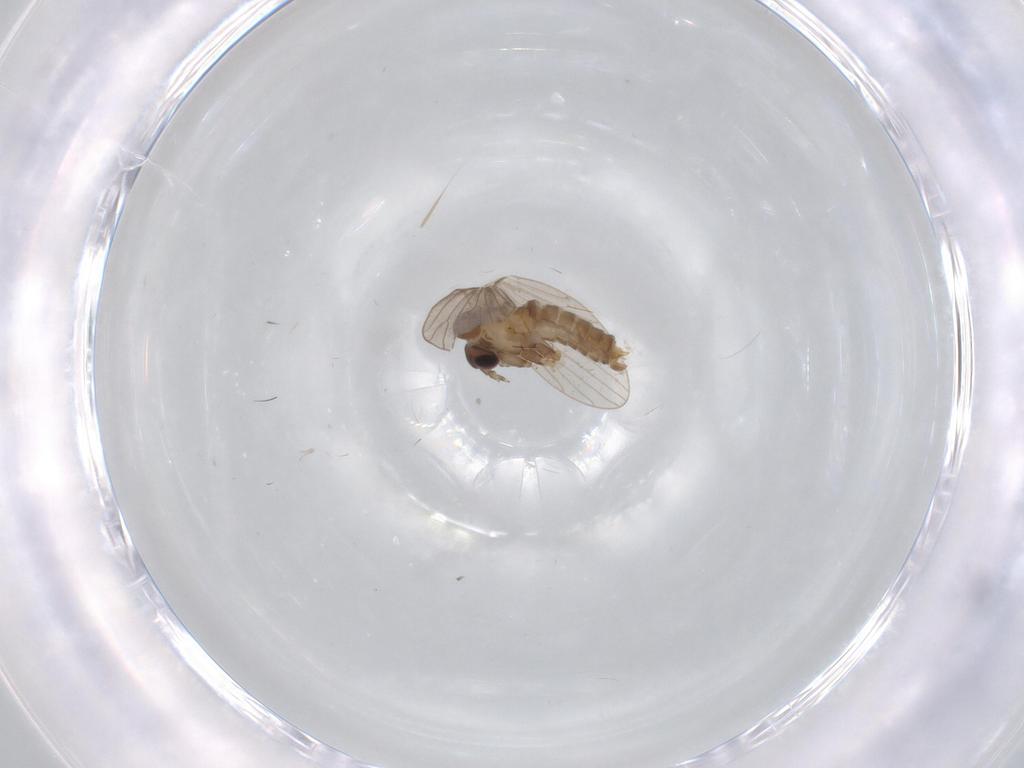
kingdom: Animalia
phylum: Arthropoda
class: Insecta
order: Diptera
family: Psychodidae
